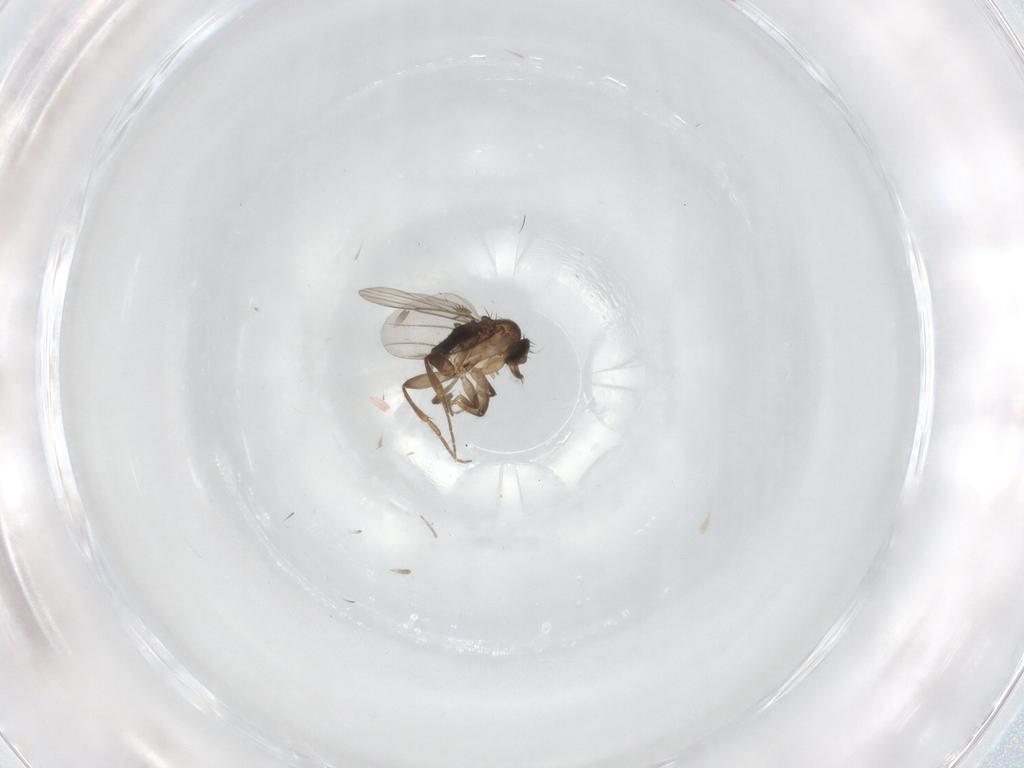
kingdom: Animalia
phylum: Arthropoda
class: Insecta
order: Diptera
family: Phoridae
